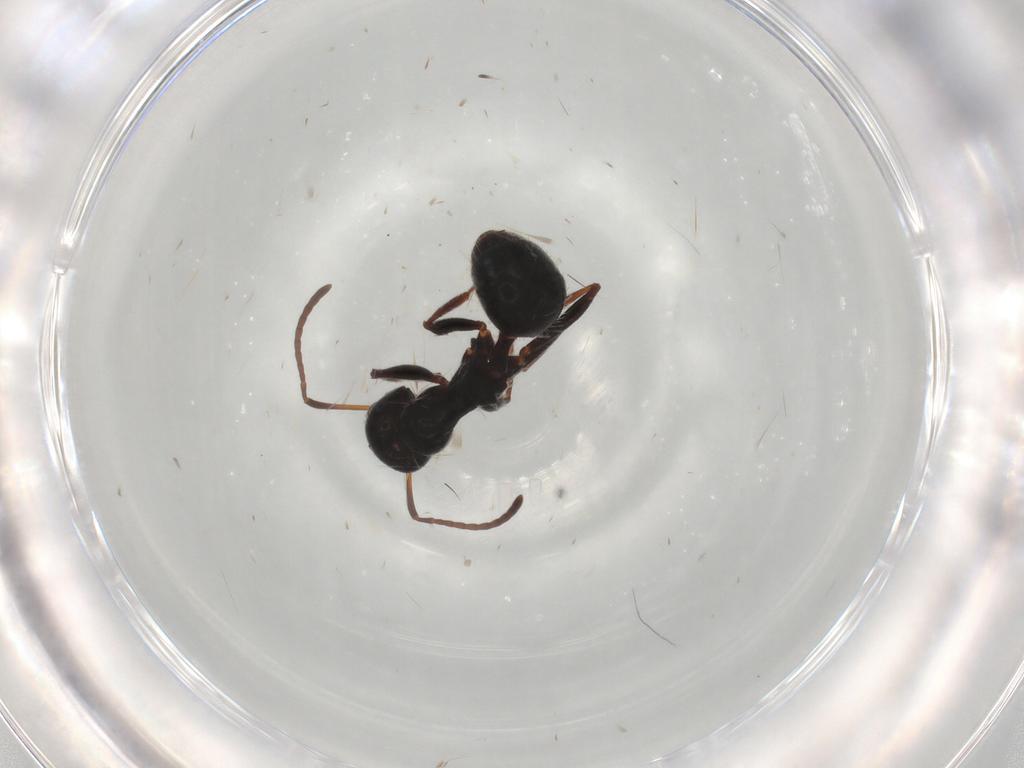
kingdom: Animalia
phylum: Arthropoda
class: Insecta
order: Hymenoptera
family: Formicidae
